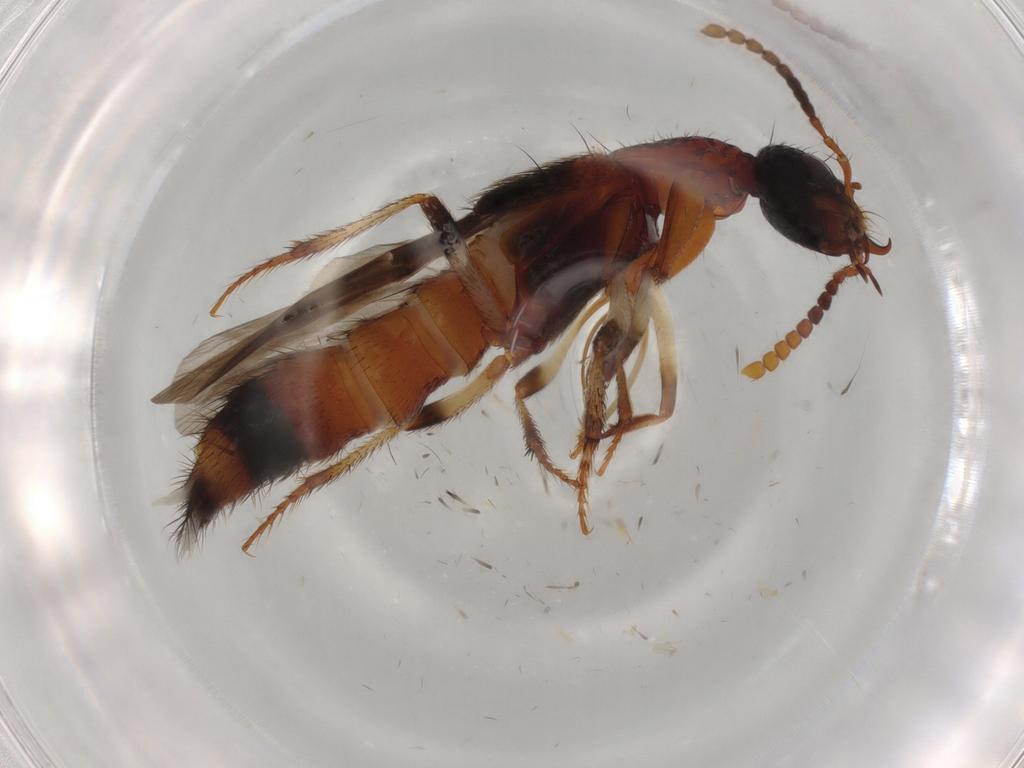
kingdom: Animalia
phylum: Arthropoda
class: Insecta
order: Coleoptera
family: Staphylinidae
